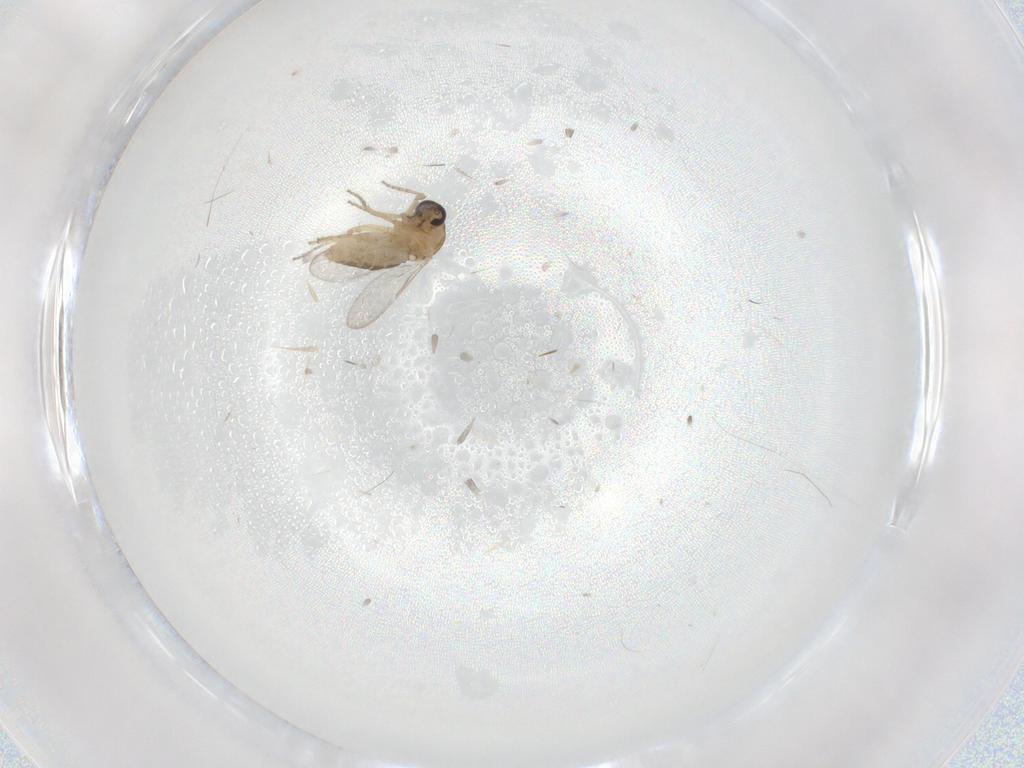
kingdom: Animalia
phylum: Arthropoda
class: Insecta
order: Diptera
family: Ceratopogonidae
